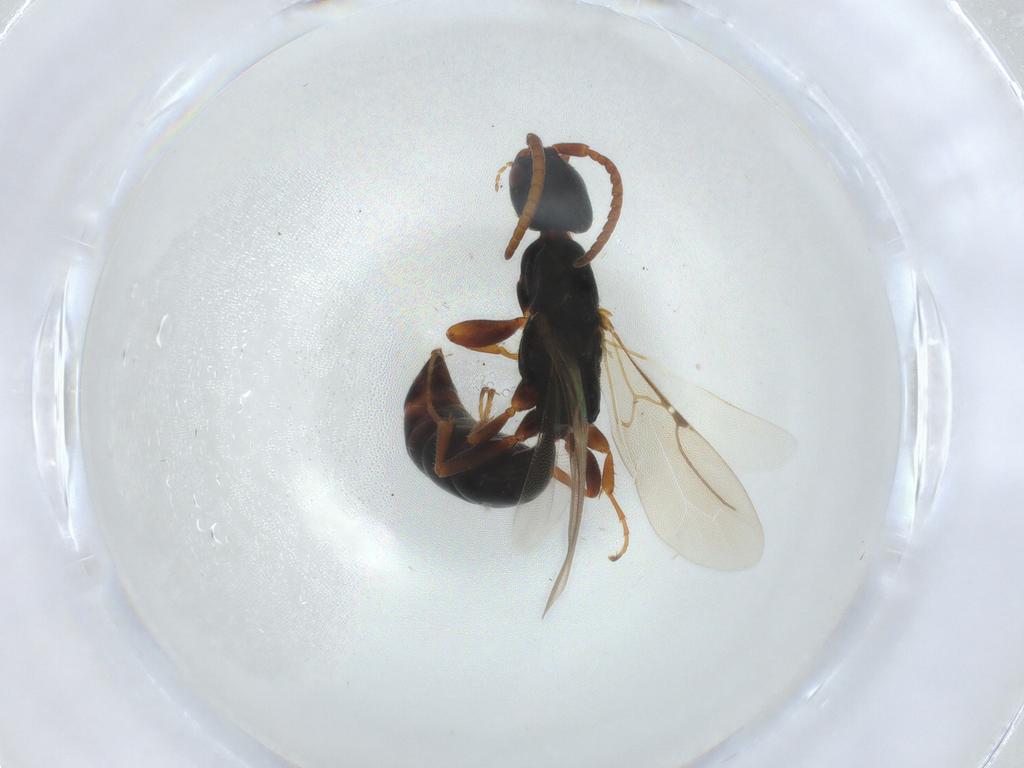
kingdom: Animalia
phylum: Arthropoda
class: Insecta
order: Hymenoptera
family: Bethylidae
